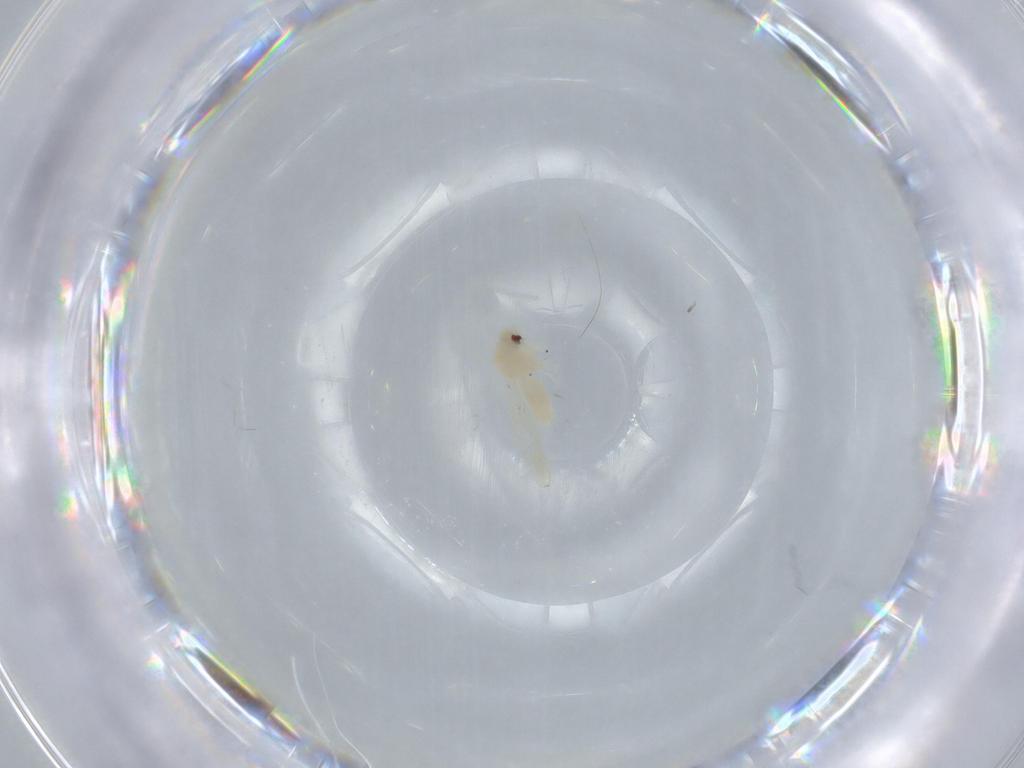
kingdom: Animalia
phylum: Arthropoda
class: Insecta
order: Hemiptera
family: Aleyrodidae
